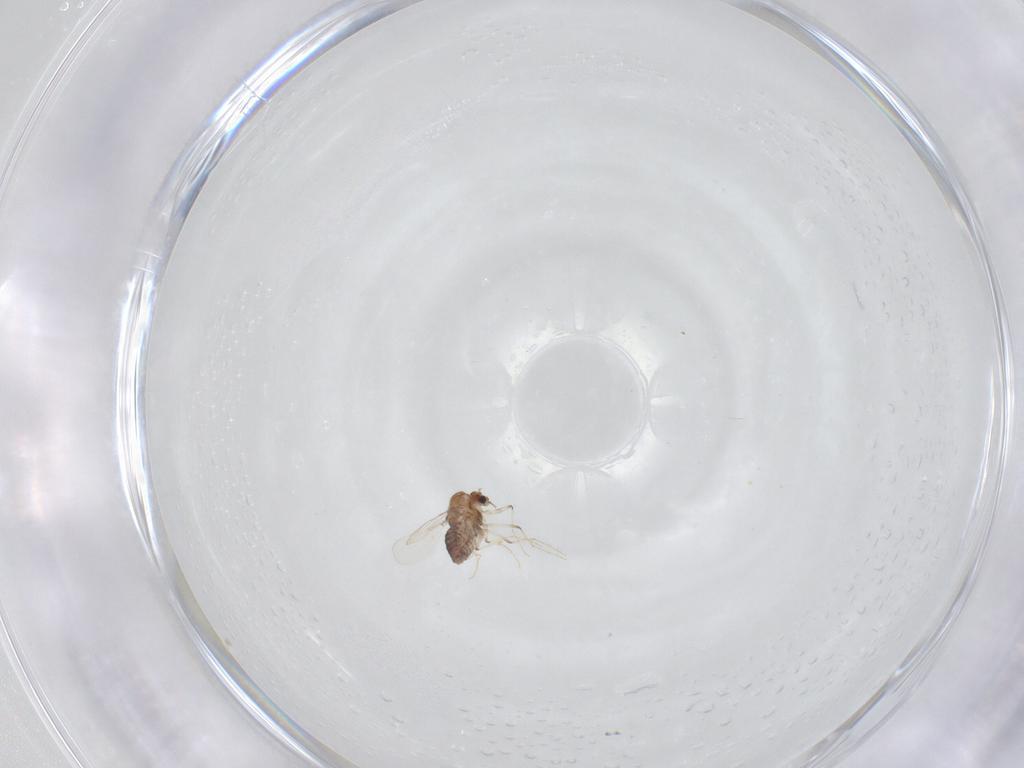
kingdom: Animalia
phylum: Arthropoda
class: Insecta
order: Diptera
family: Chironomidae
